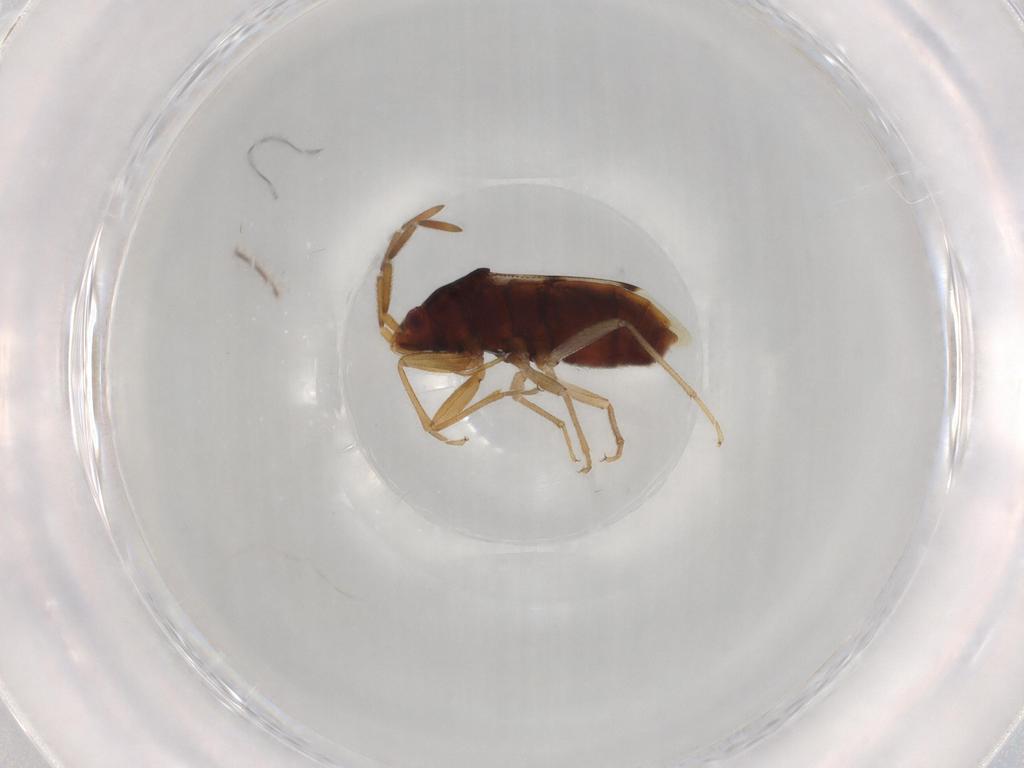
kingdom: Animalia
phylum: Arthropoda
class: Insecta
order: Hemiptera
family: Rhyparochromidae
